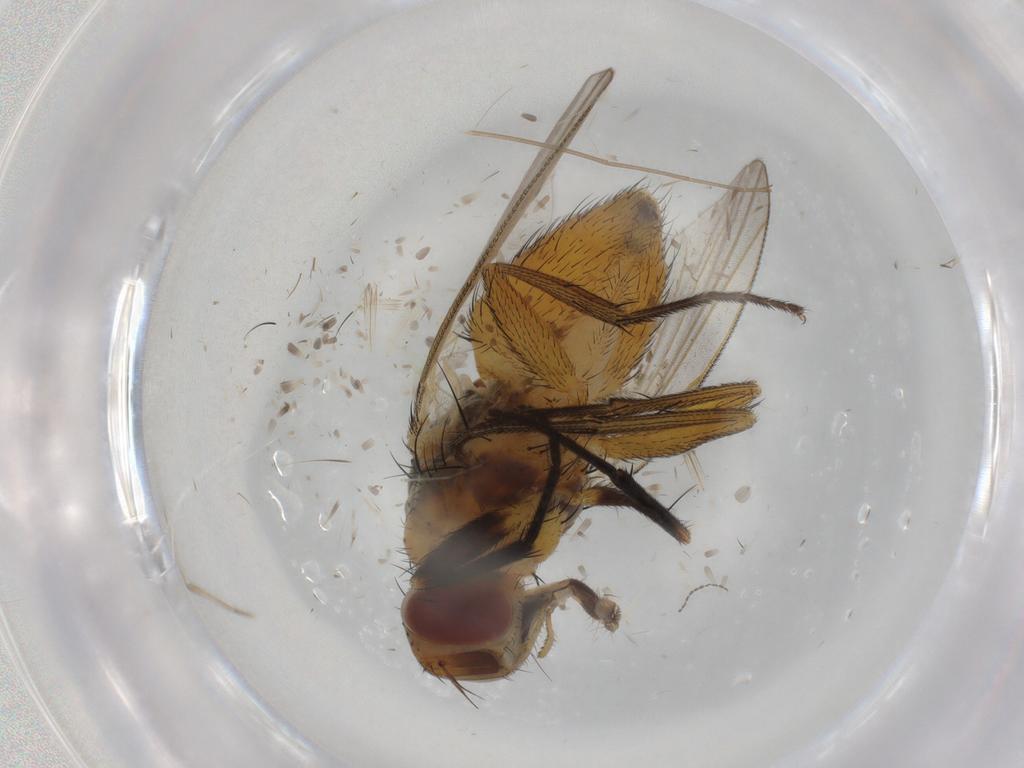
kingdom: Animalia
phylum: Arthropoda
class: Insecta
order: Diptera
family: Muscidae
